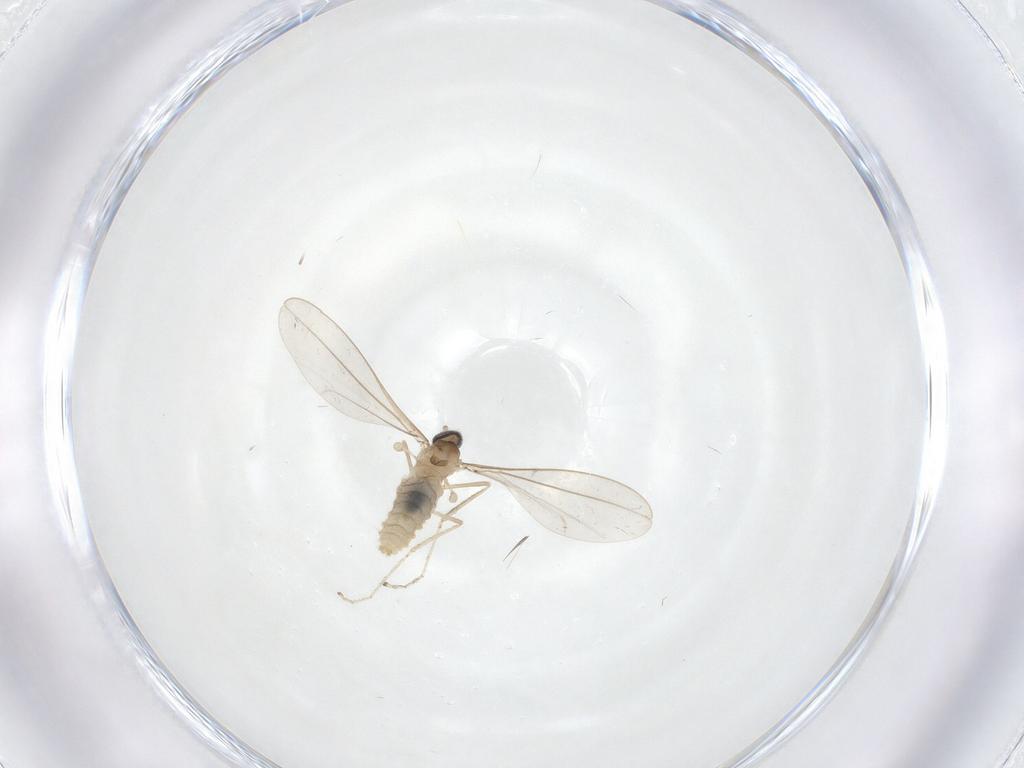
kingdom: Animalia
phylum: Arthropoda
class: Insecta
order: Diptera
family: Cecidomyiidae
